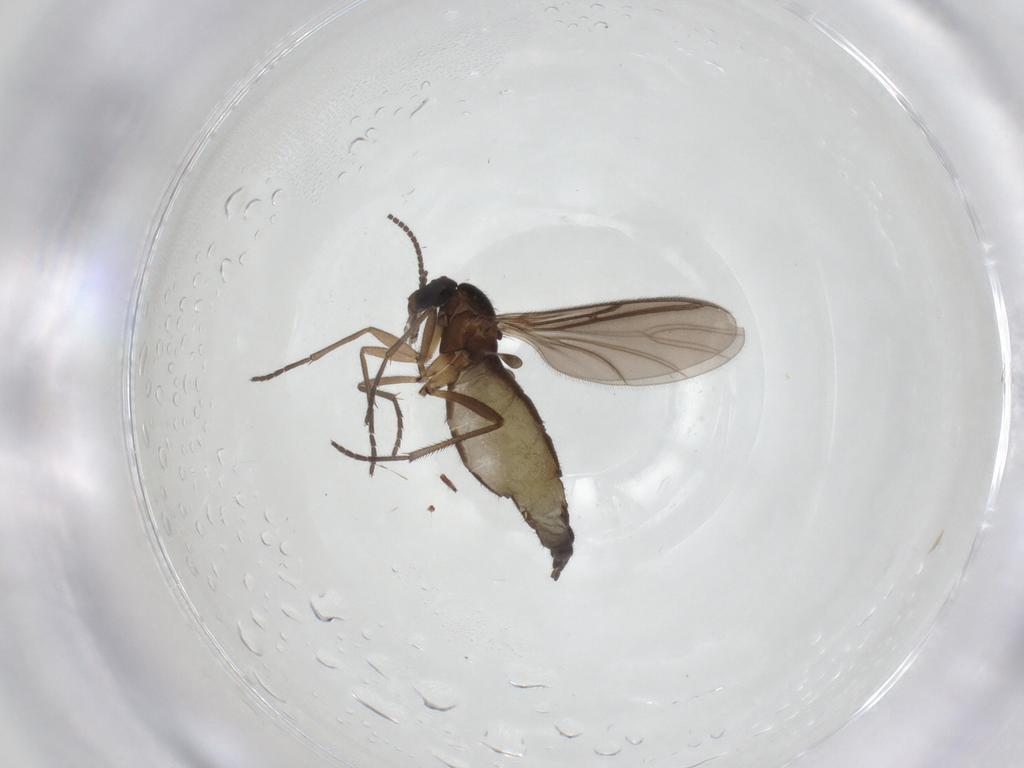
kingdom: Animalia
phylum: Arthropoda
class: Insecta
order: Diptera
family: Sciaridae
